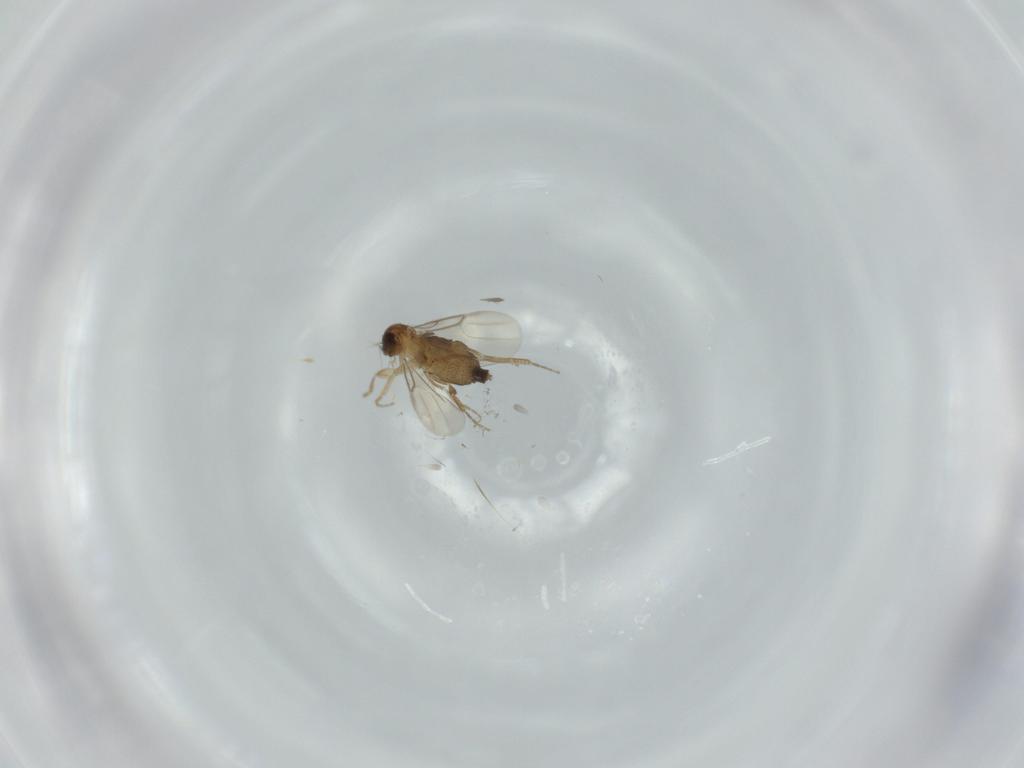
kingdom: Animalia
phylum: Arthropoda
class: Insecta
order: Diptera
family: Phoridae
